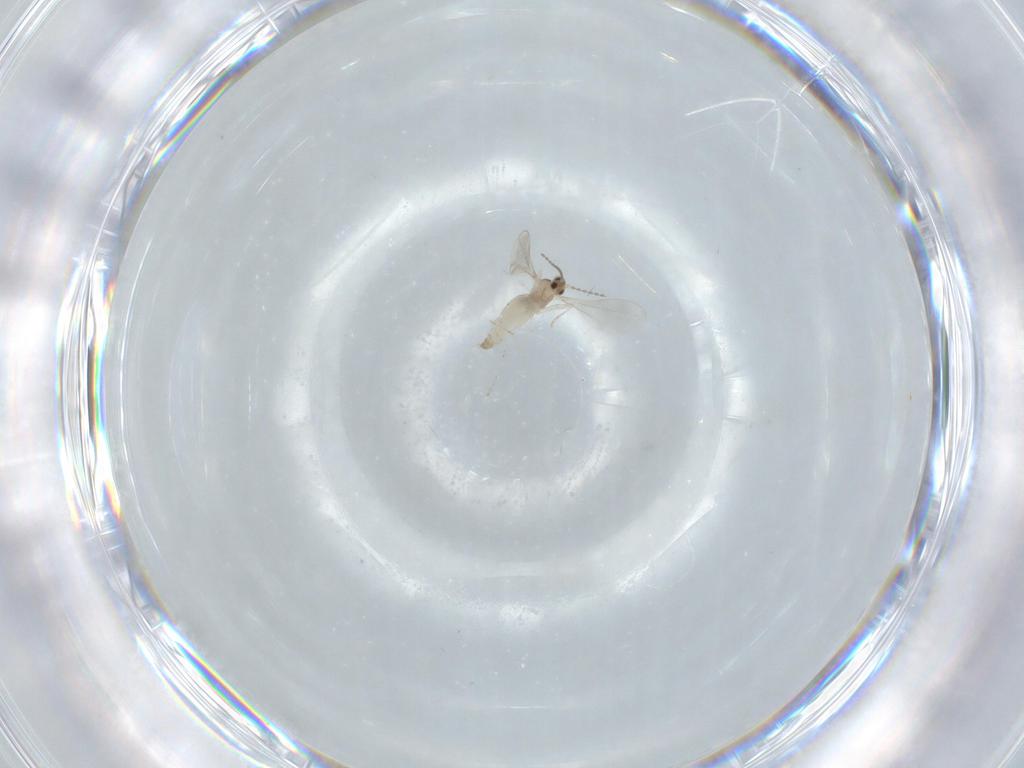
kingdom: Animalia
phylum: Arthropoda
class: Insecta
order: Diptera
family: Cecidomyiidae
